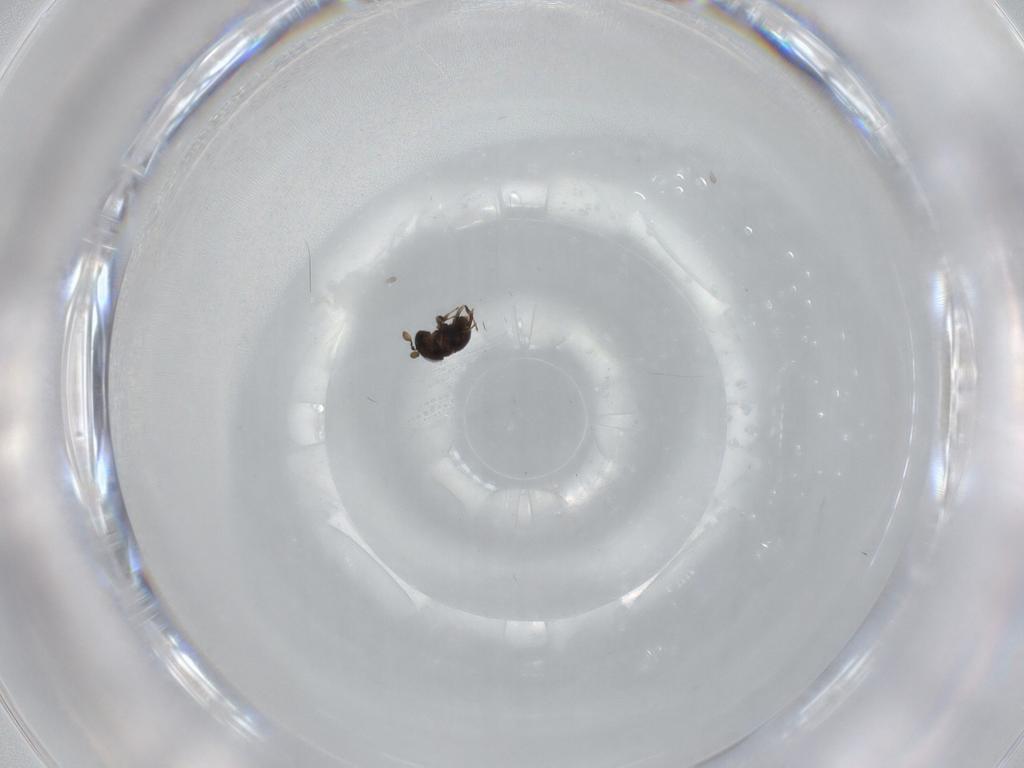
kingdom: Animalia
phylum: Arthropoda
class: Insecta
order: Hymenoptera
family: Scelionidae
